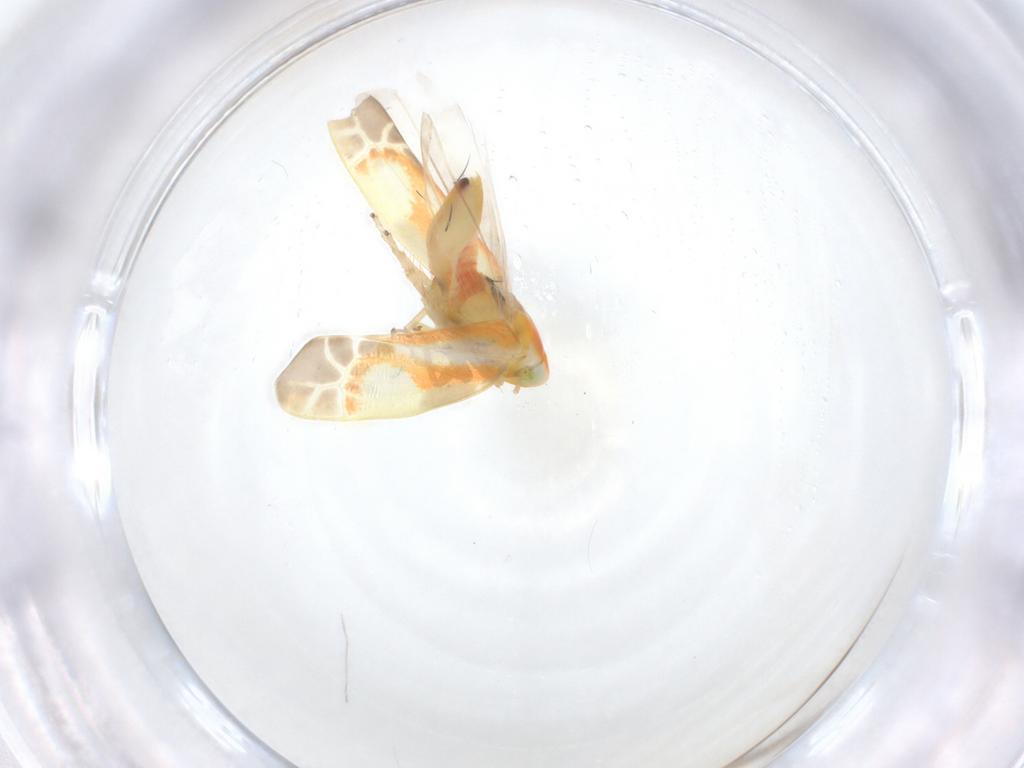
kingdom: Animalia
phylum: Arthropoda
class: Insecta
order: Hemiptera
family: Cicadellidae
